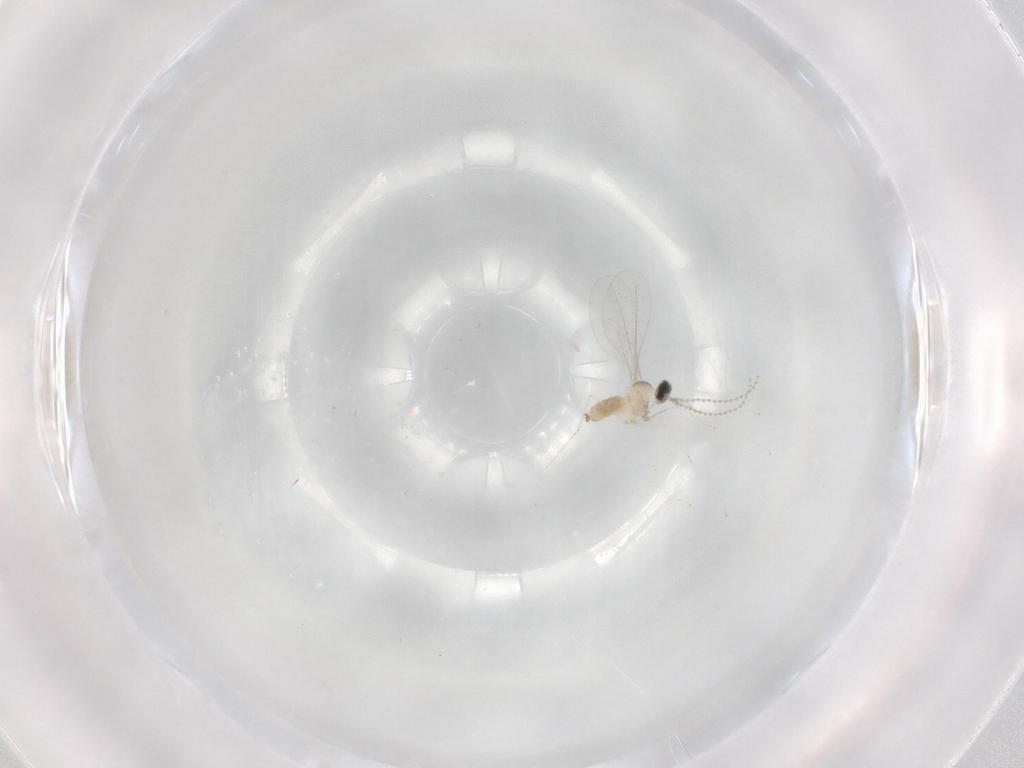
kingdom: Animalia
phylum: Arthropoda
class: Insecta
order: Diptera
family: Cecidomyiidae
